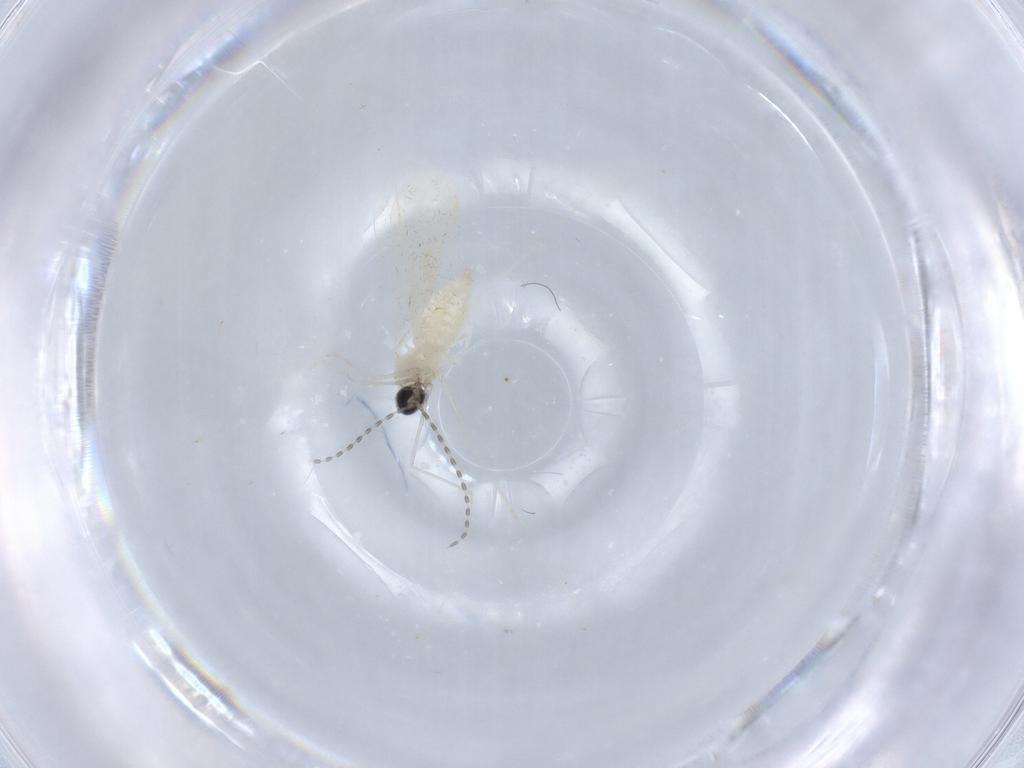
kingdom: Animalia
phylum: Arthropoda
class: Insecta
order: Diptera
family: Cecidomyiidae
